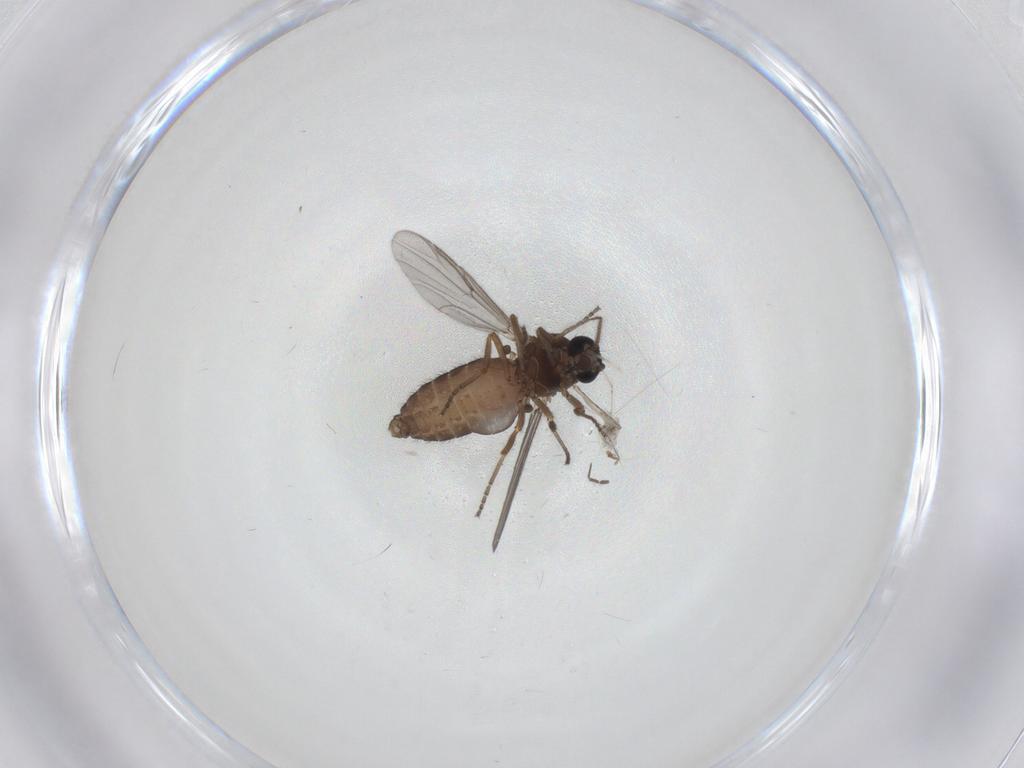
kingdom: Animalia
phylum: Arthropoda
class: Insecta
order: Diptera
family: Ceratopogonidae
